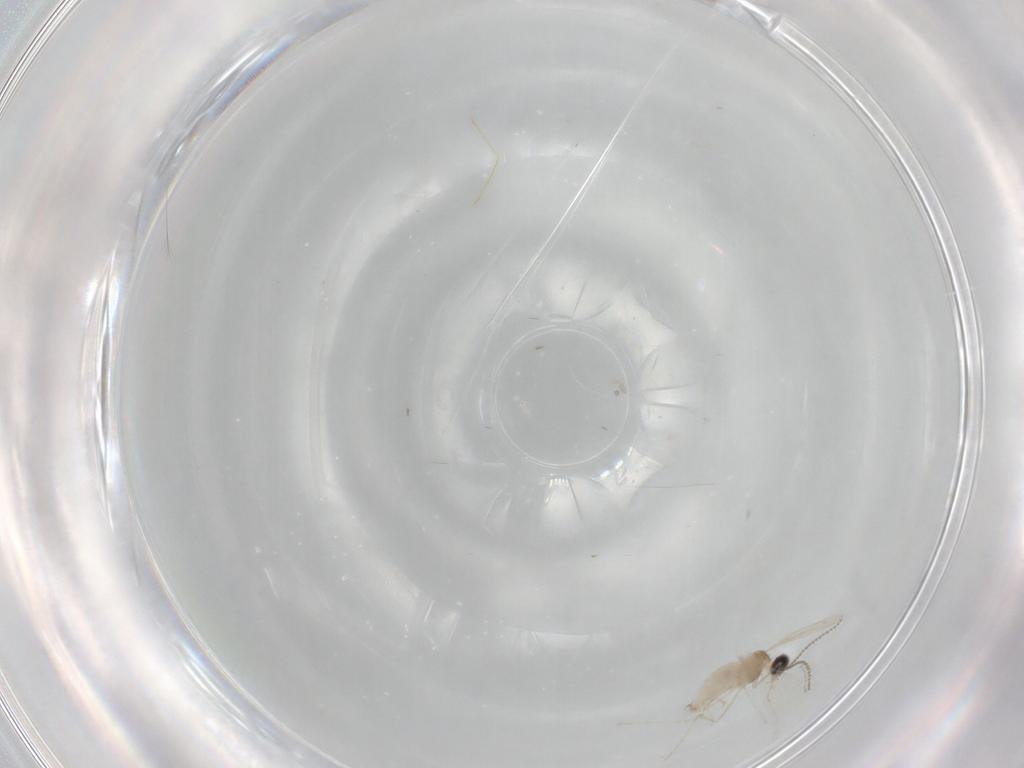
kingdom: Animalia
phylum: Arthropoda
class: Insecta
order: Diptera
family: Cecidomyiidae
